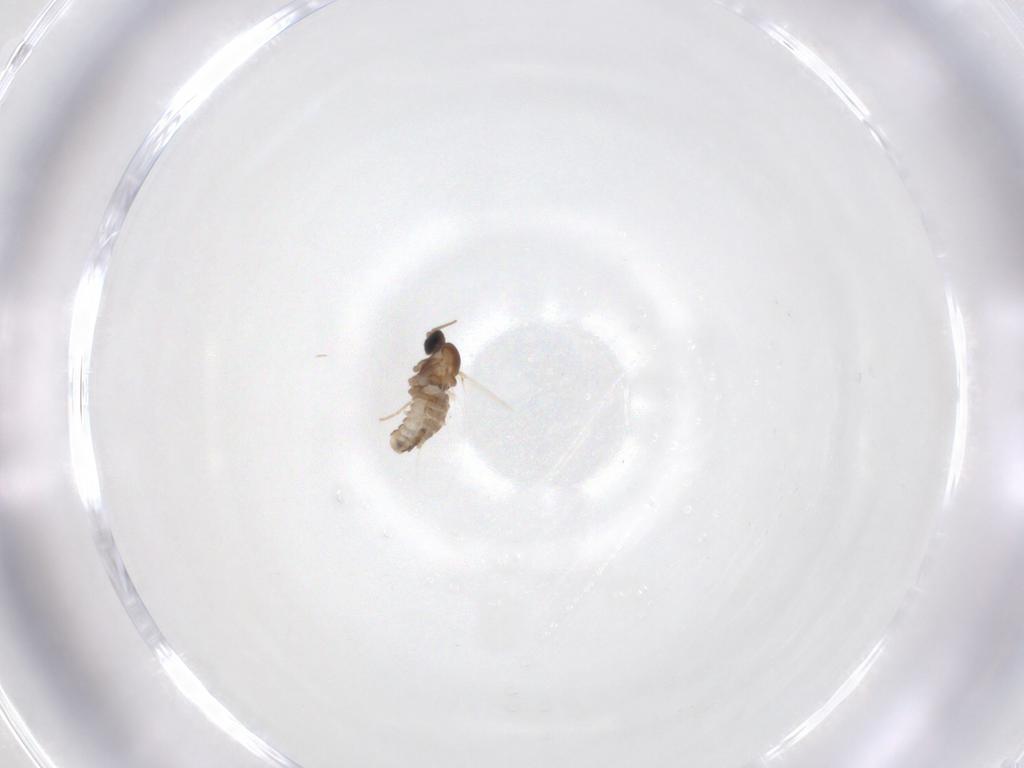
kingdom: Animalia
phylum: Arthropoda
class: Insecta
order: Diptera
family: Cecidomyiidae
